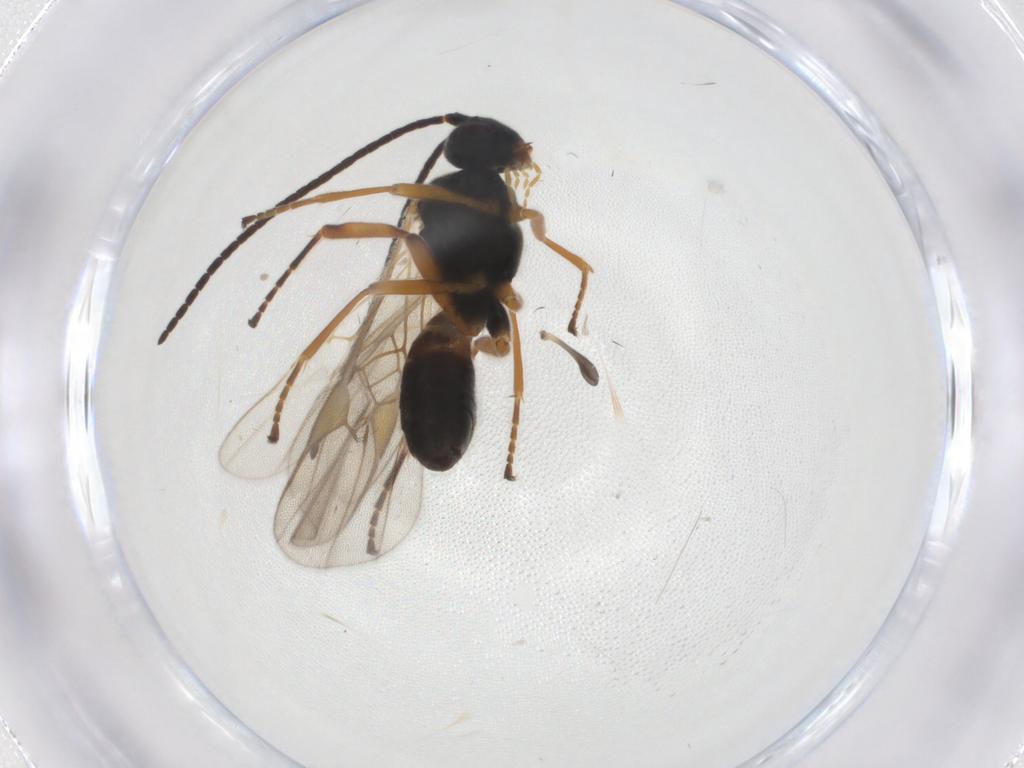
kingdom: Animalia
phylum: Arthropoda
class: Insecta
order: Hymenoptera
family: Braconidae
